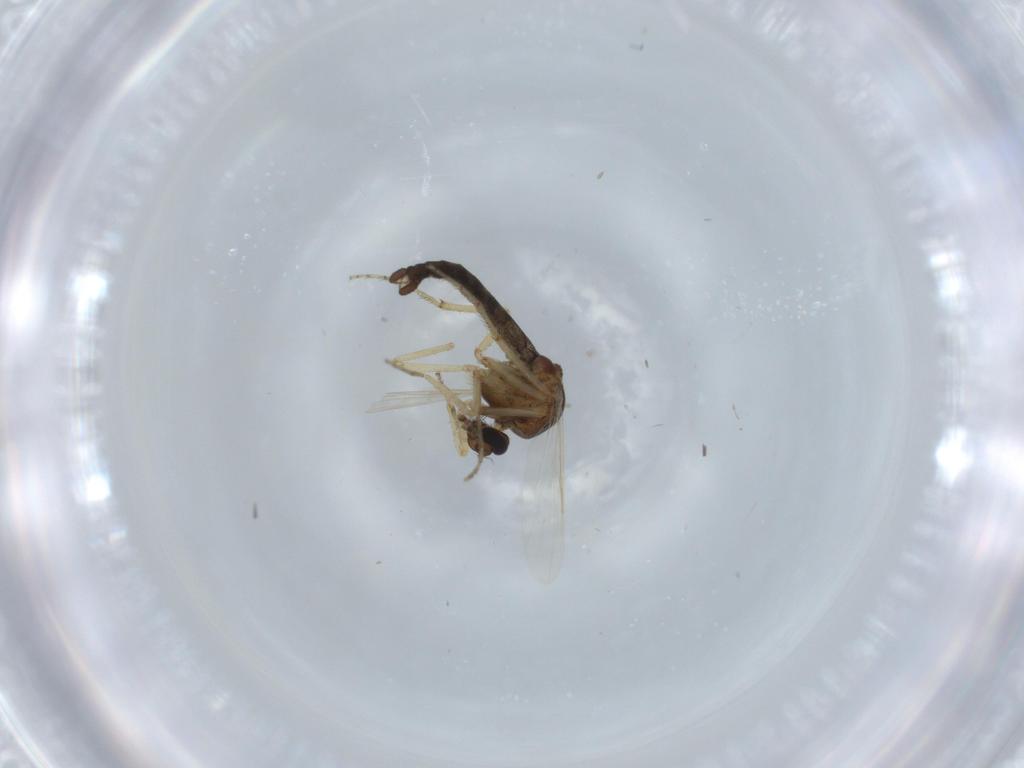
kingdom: Animalia
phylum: Arthropoda
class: Insecta
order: Diptera
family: Ceratopogonidae
